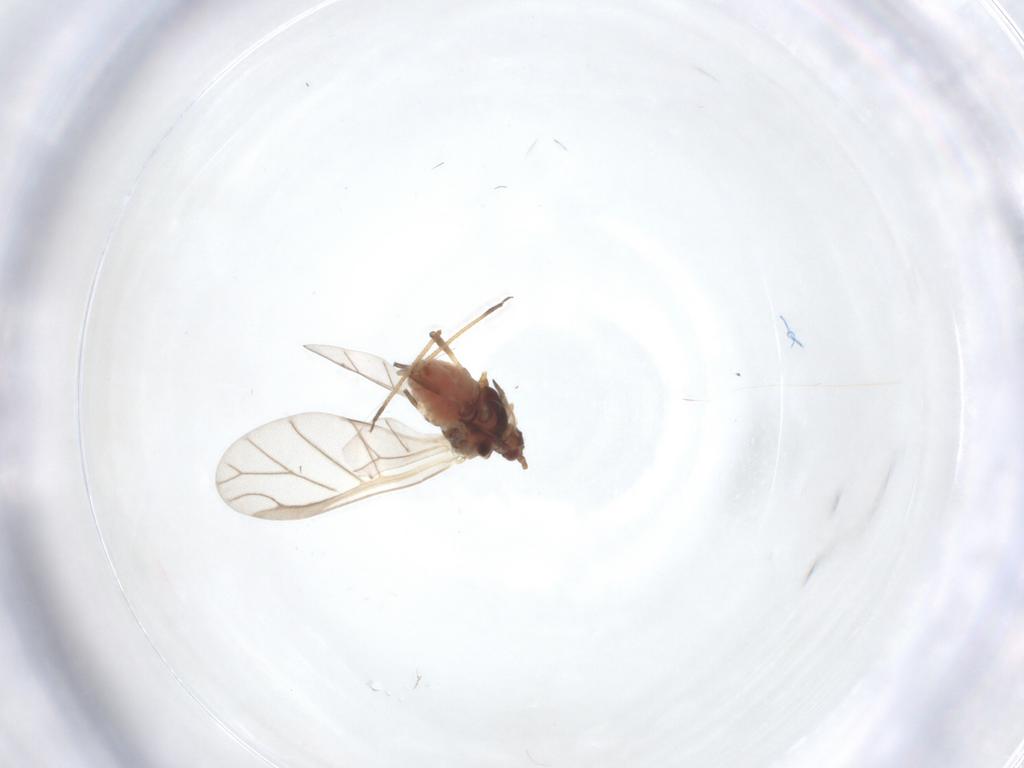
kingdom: Animalia
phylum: Arthropoda
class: Insecta
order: Hemiptera
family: Aphididae
